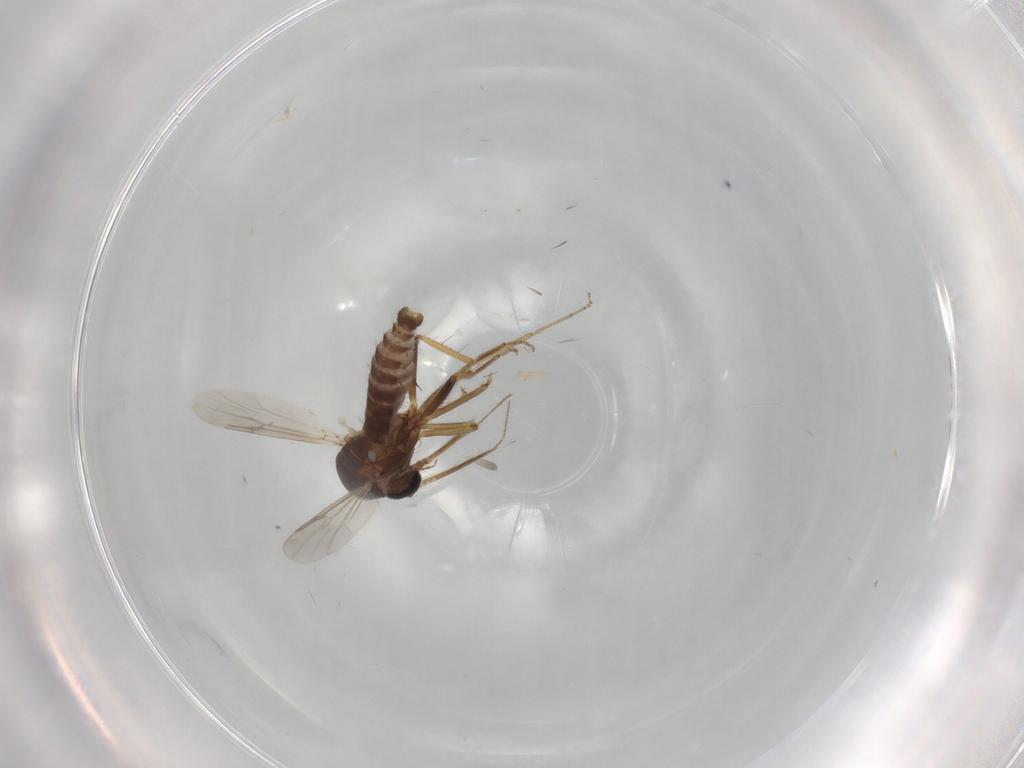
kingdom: Animalia
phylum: Arthropoda
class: Insecta
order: Diptera
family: Ceratopogonidae
